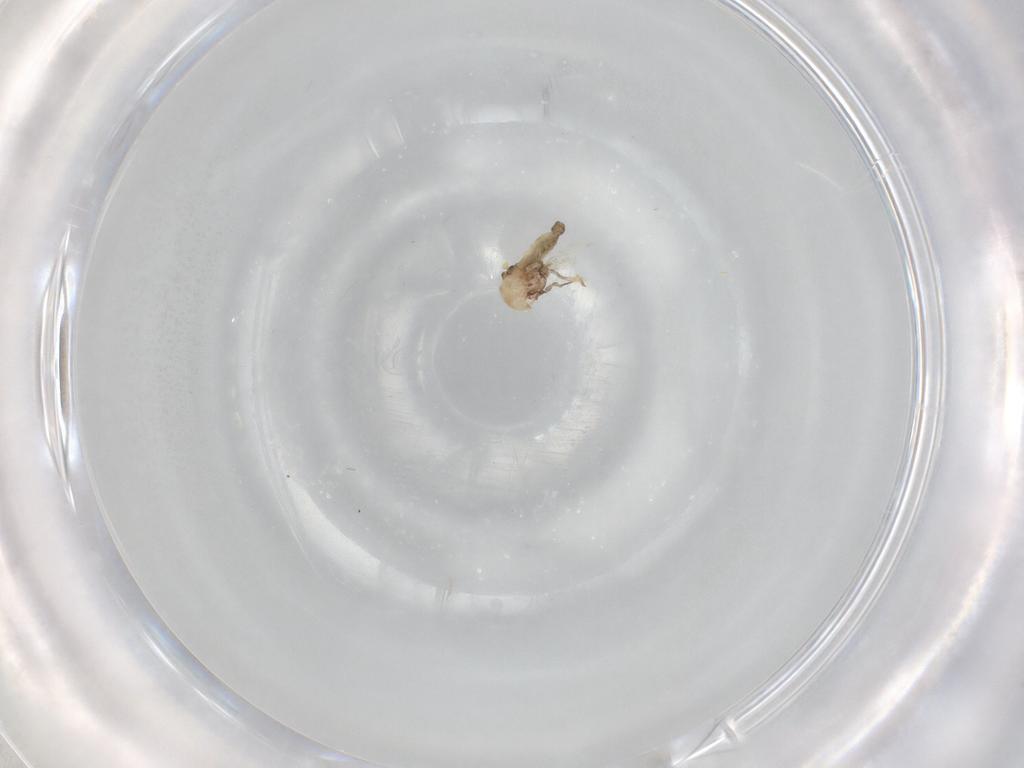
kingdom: Animalia
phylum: Arthropoda
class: Insecta
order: Diptera
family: Ceratopogonidae
